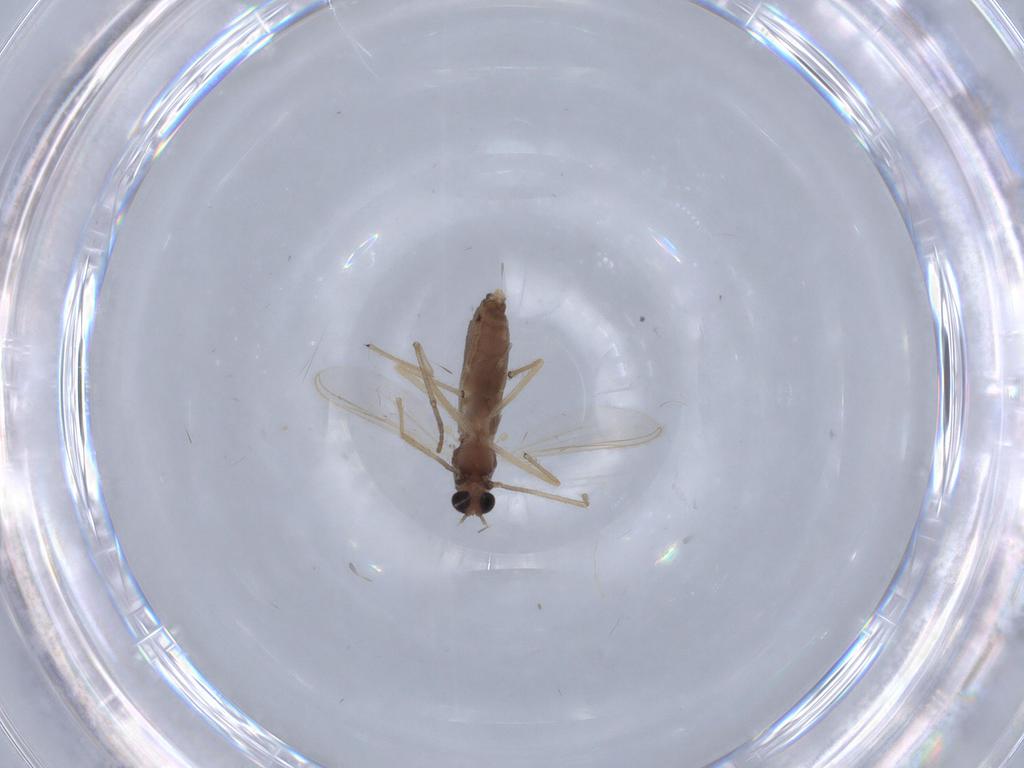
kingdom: Animalia
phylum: Arthropoda
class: Insecta
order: Diptera
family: Chironomidae
